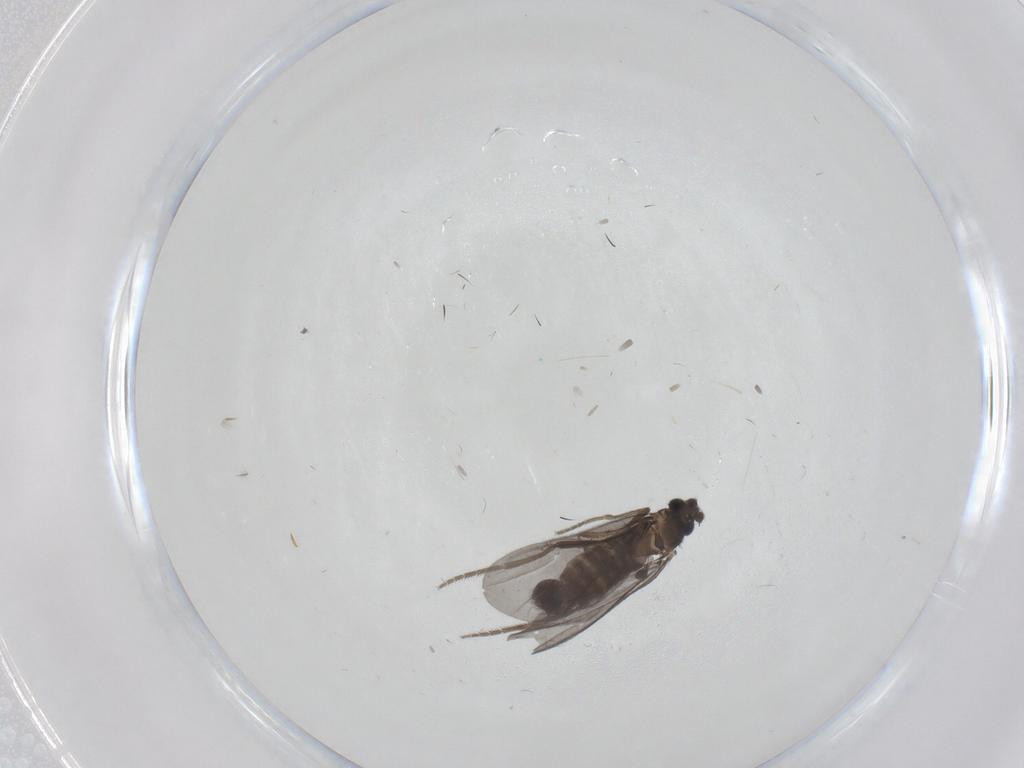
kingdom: Animalia
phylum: Arthropoda
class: Insecta
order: Diptera
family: Phoridae
